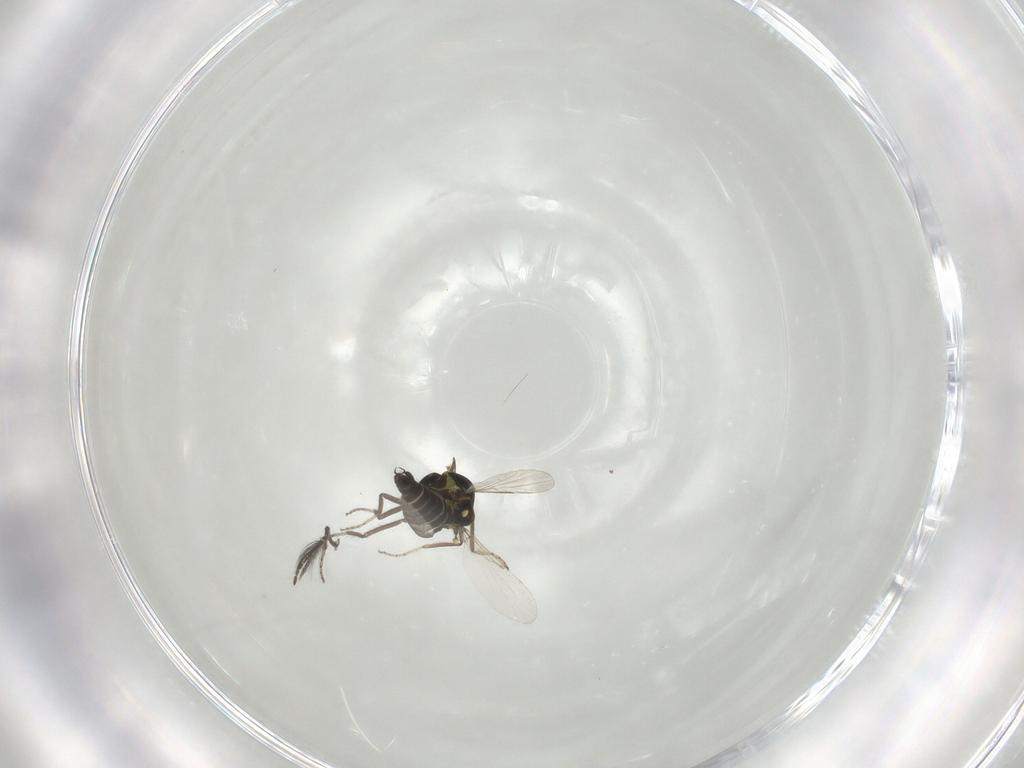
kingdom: Animalia
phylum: Arthropoda
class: Insecta
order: Diptera
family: Ceratopogonidae
